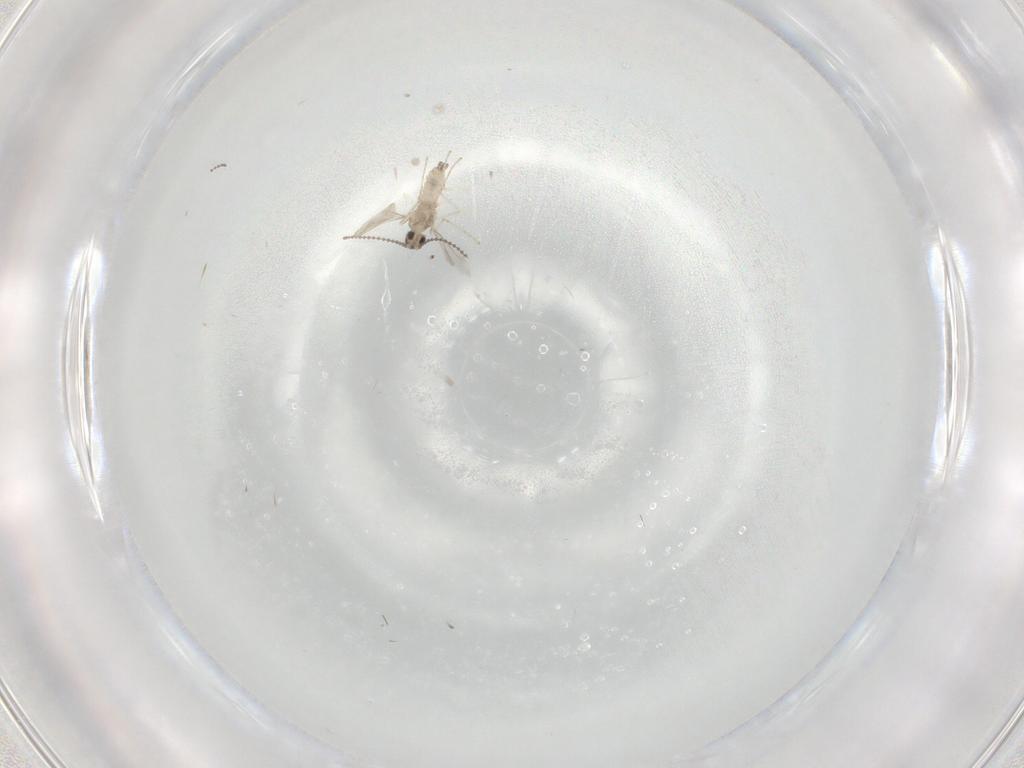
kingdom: Animalia
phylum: Arthropoda
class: Insecta
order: Diptera
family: Cecidomyiidae
